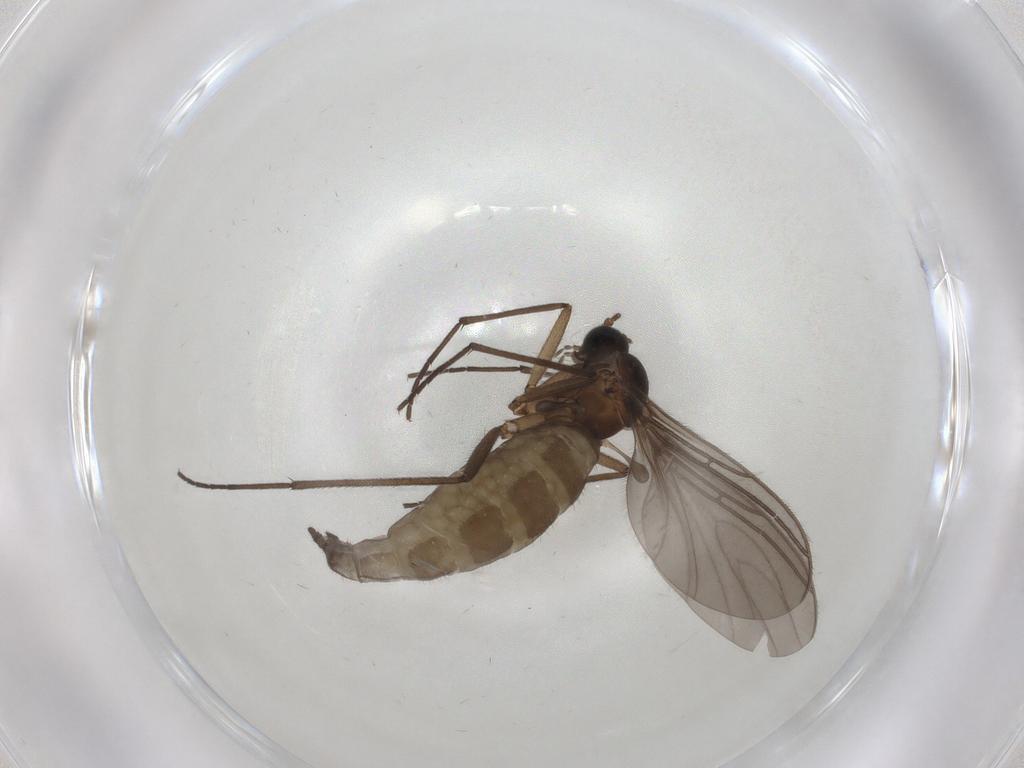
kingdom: Animalia
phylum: Arthropoda
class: Insecta
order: Diptera
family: Sciaridae
